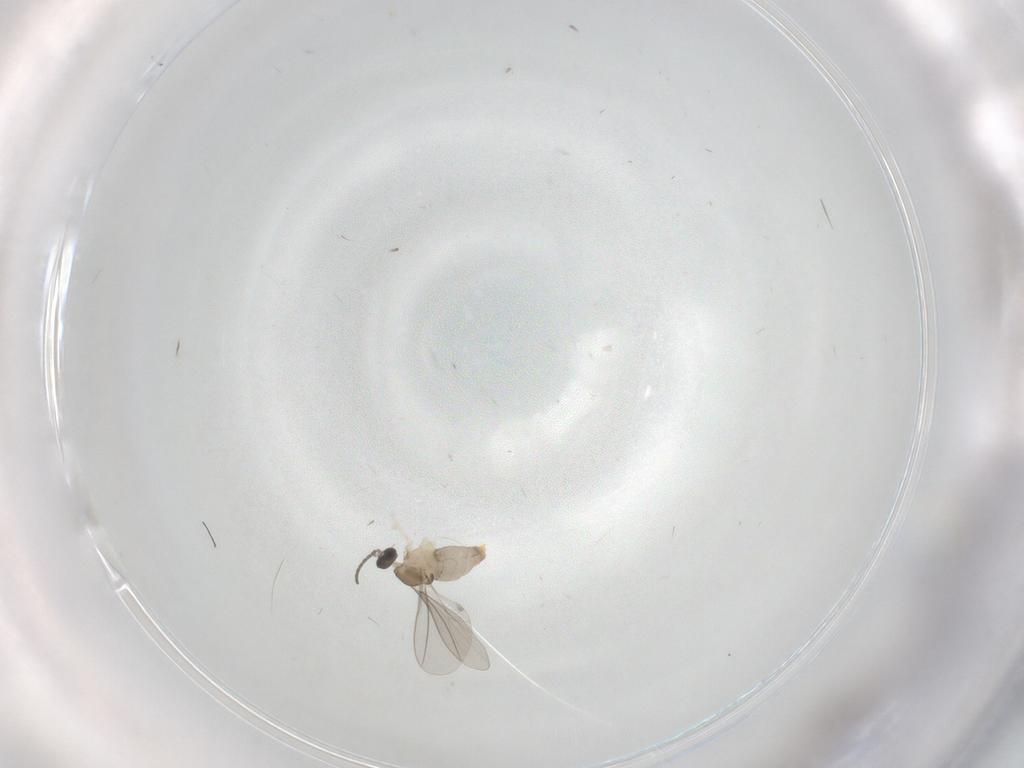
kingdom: Animalia
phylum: Arthropoda
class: Insecta
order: Diptera
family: Cecidomyiidae
